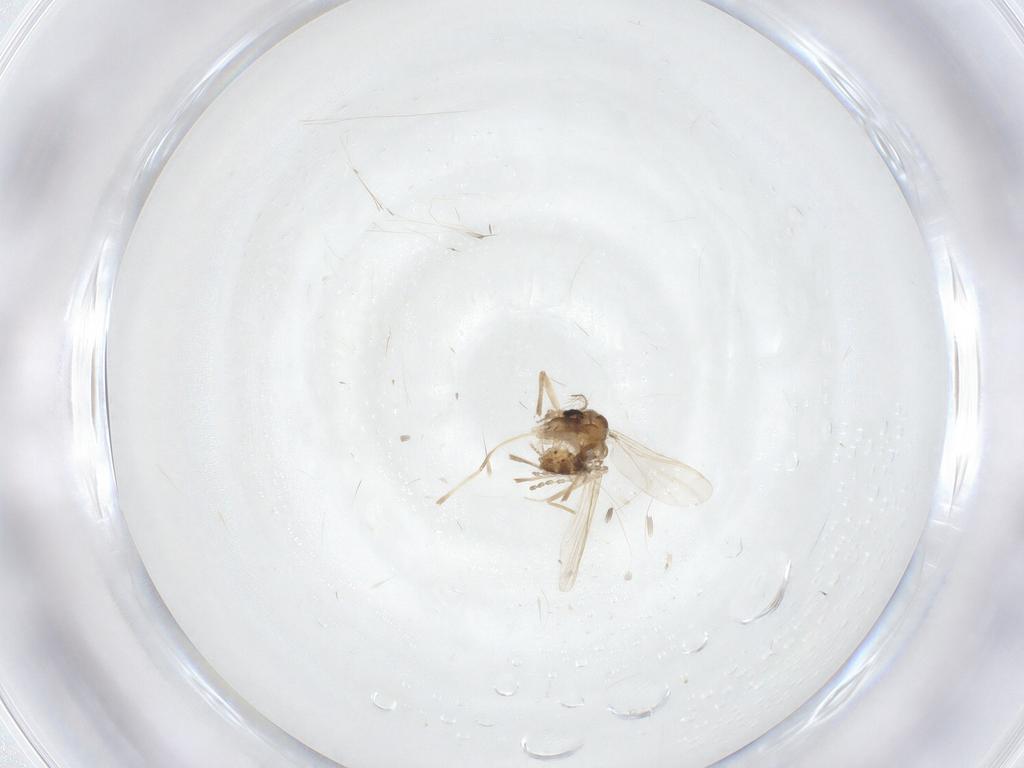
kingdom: Animalia
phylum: Arthropoda
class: Insecta
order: Diptera
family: Chironomidae
